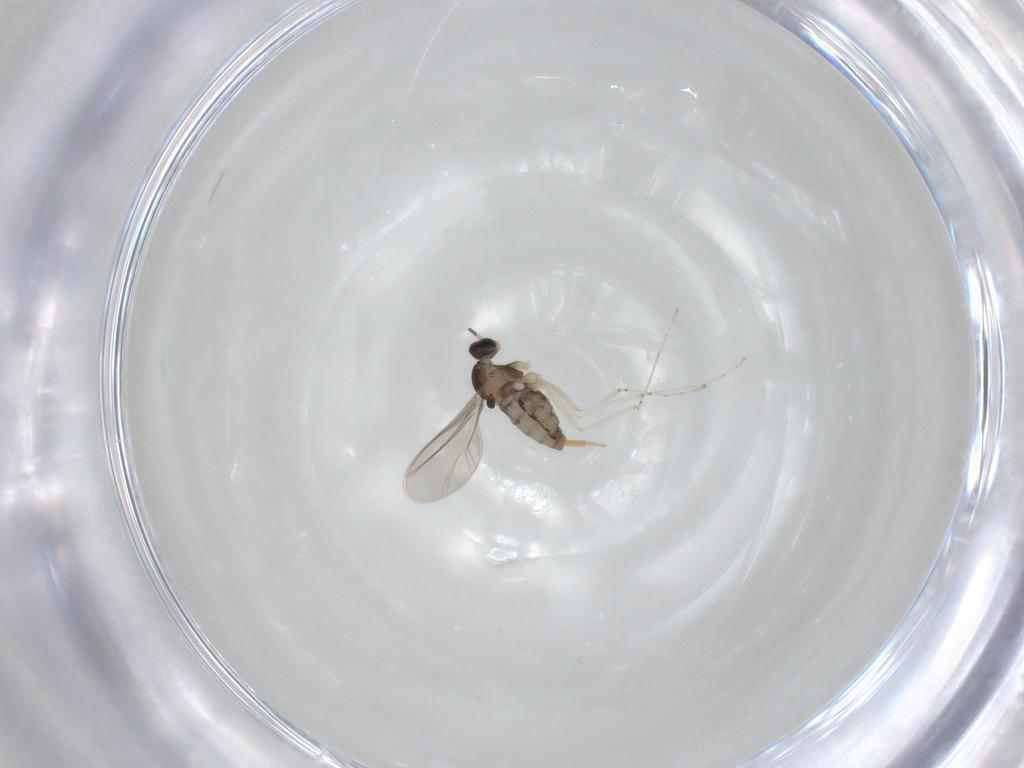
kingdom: Animalia
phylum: Arthropoda
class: Insecta
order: Diptera
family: Cecidomyiidae
